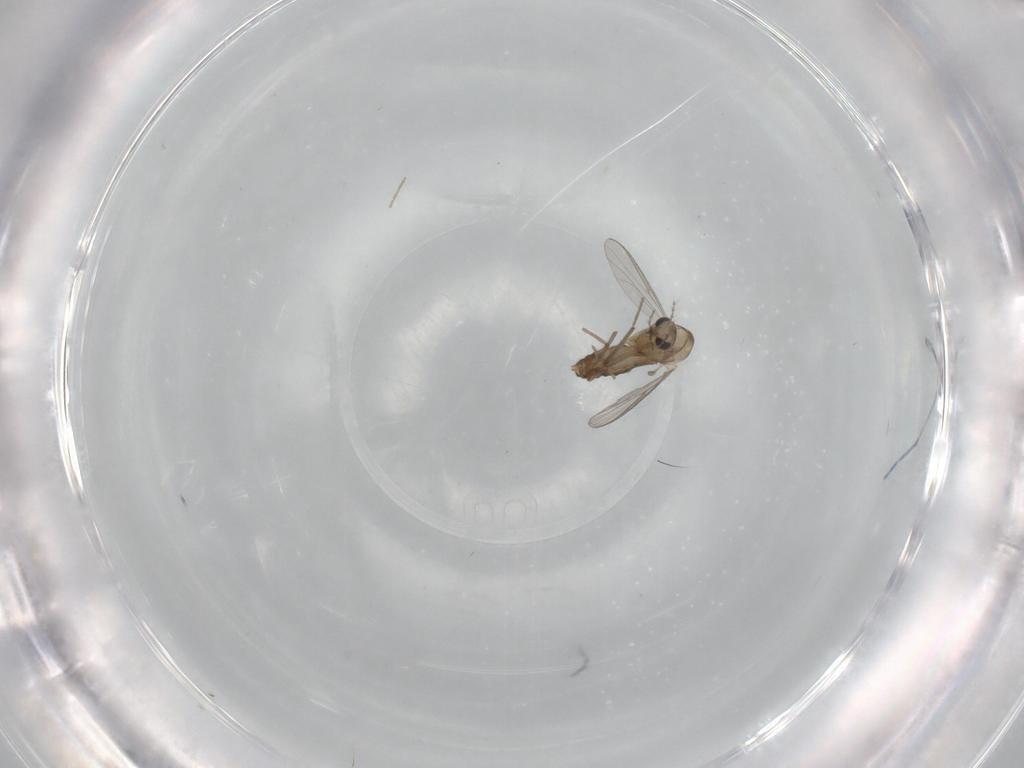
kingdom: Animalia
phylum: Arthropoda
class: Insecta
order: Diptera
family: Chironomidae
